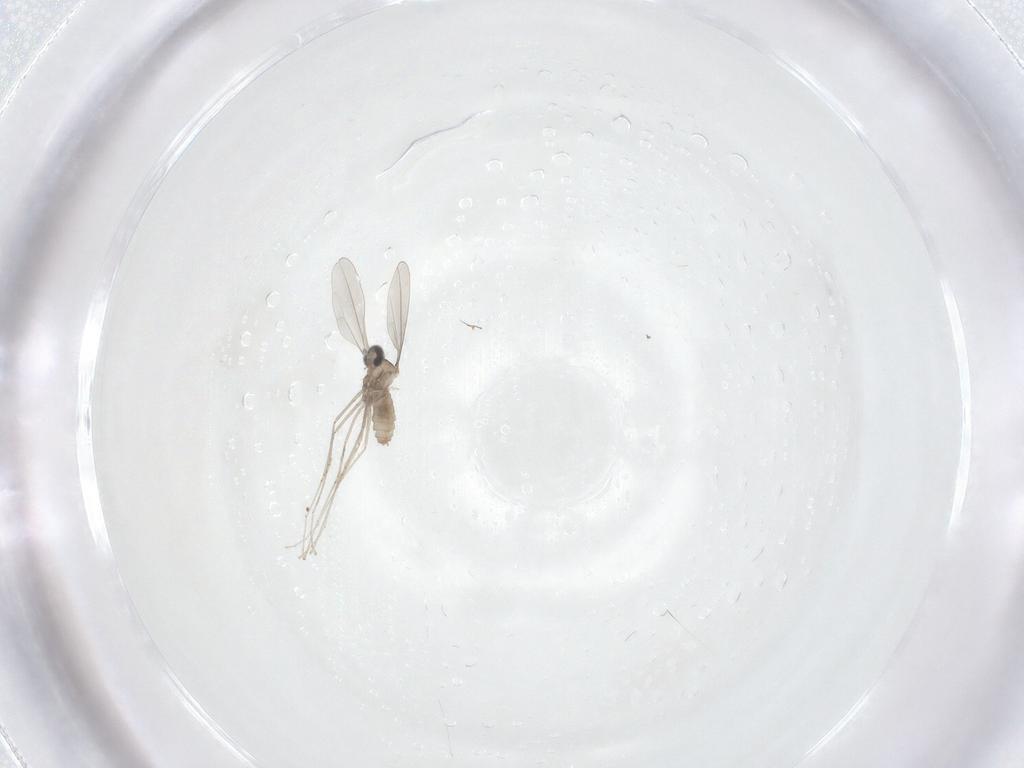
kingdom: Animalia
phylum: Arthropoda
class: Insecta
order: Diptera
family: Cecidomyiidae
